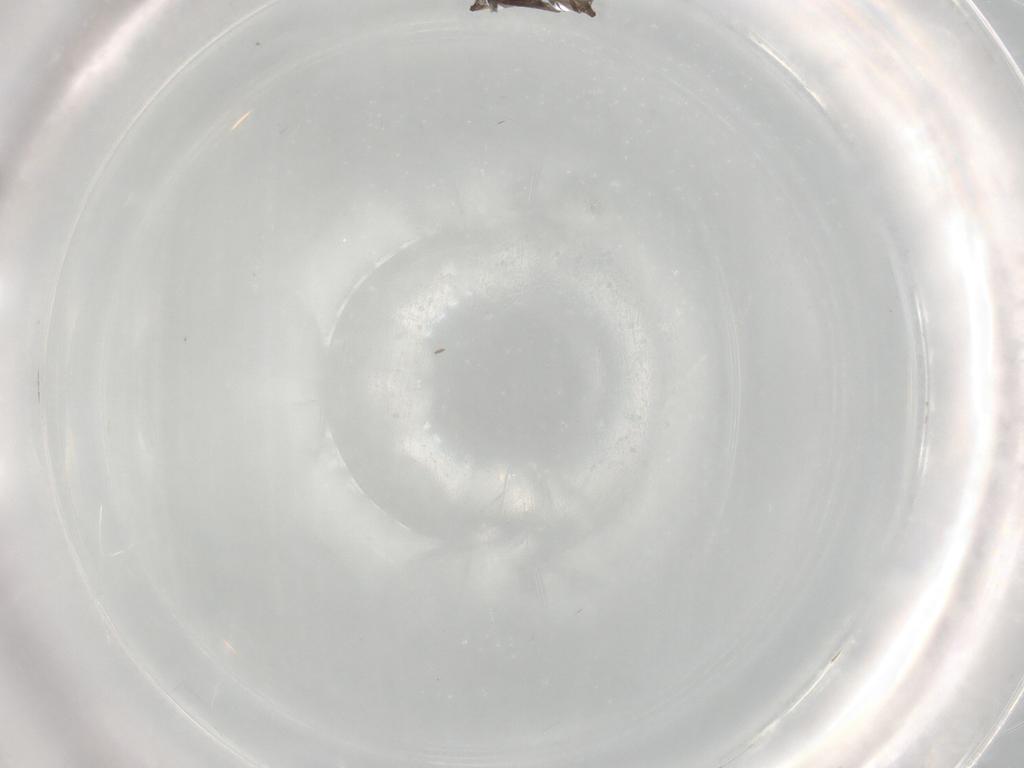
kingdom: Animalia
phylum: Arthropoda
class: Insecta
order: Diptera
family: Sciaridae
